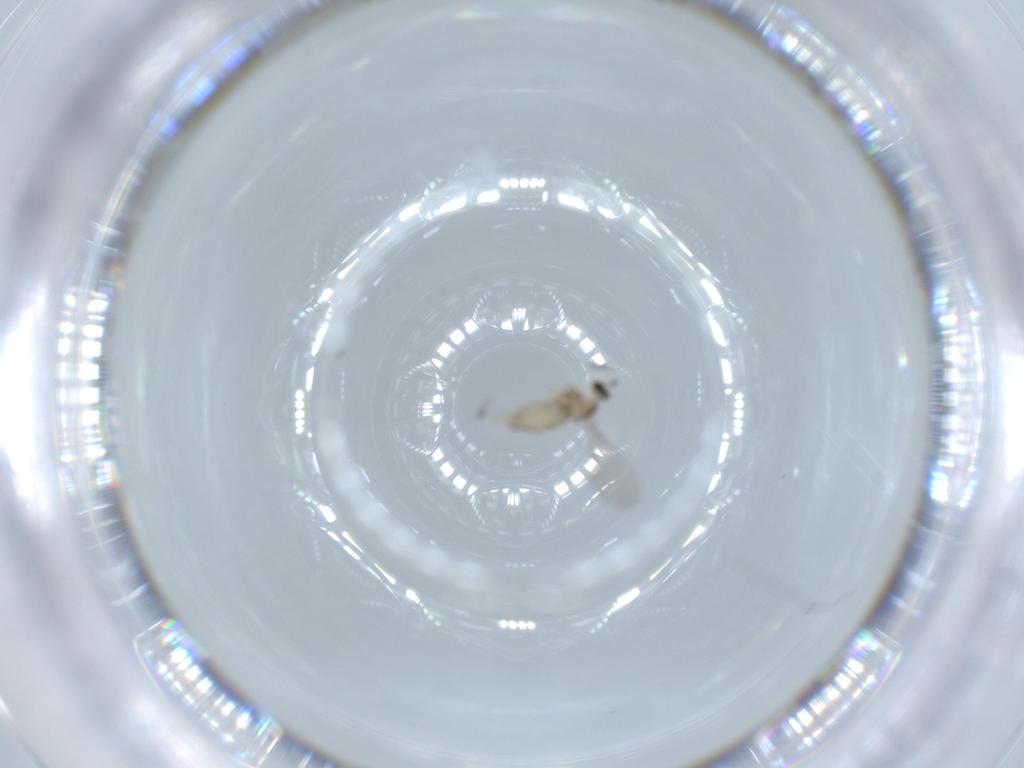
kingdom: Animalia
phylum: Arthropoda
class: Insecta
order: Diptera
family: Cecidomyiidae
